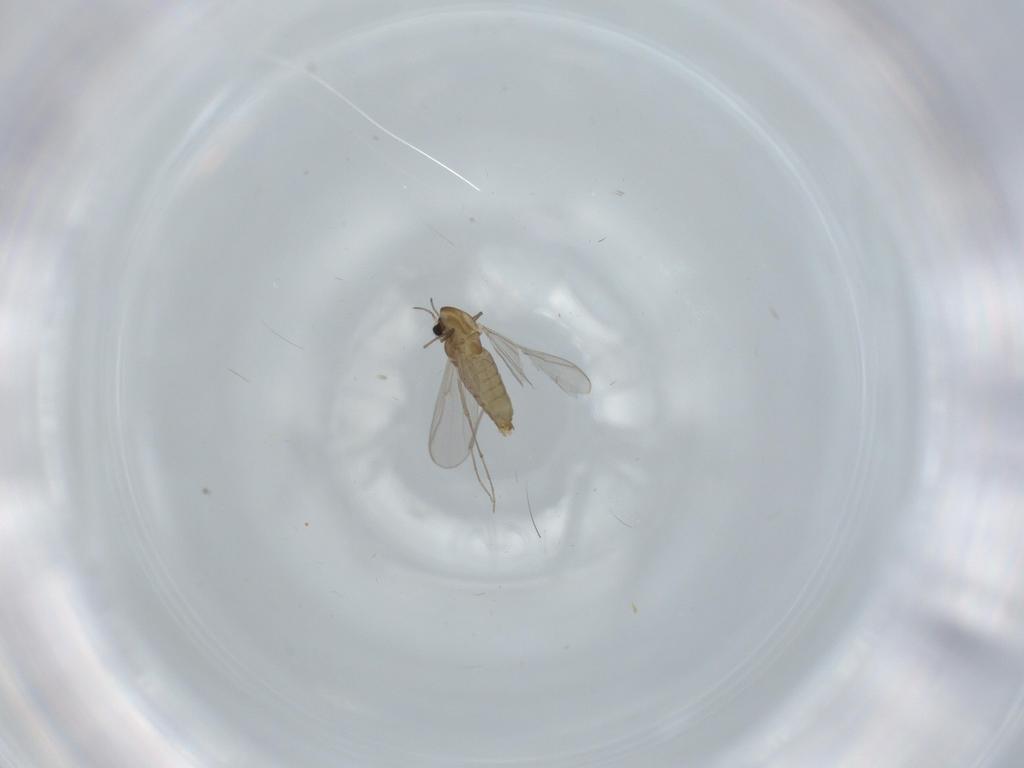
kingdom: Animalia
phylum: Arthropoda
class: Insecta
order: Diptera
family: Chironomidae
